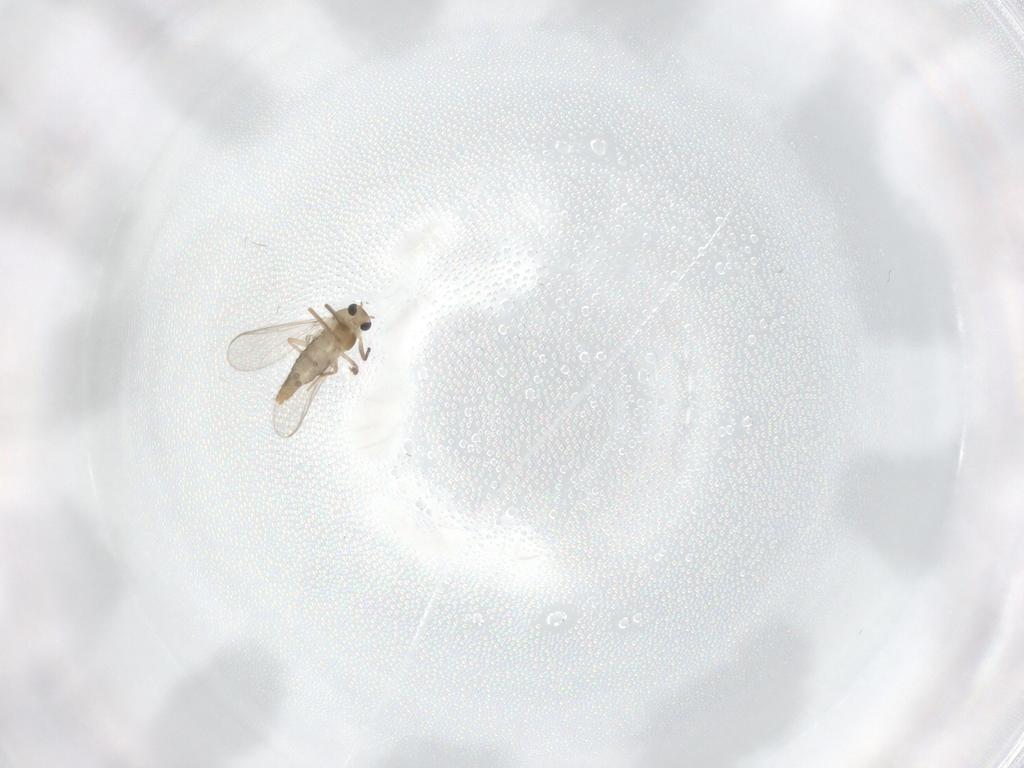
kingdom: Animalia
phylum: Arthropoda
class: Insecta
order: Diptera
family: Chironomidae
